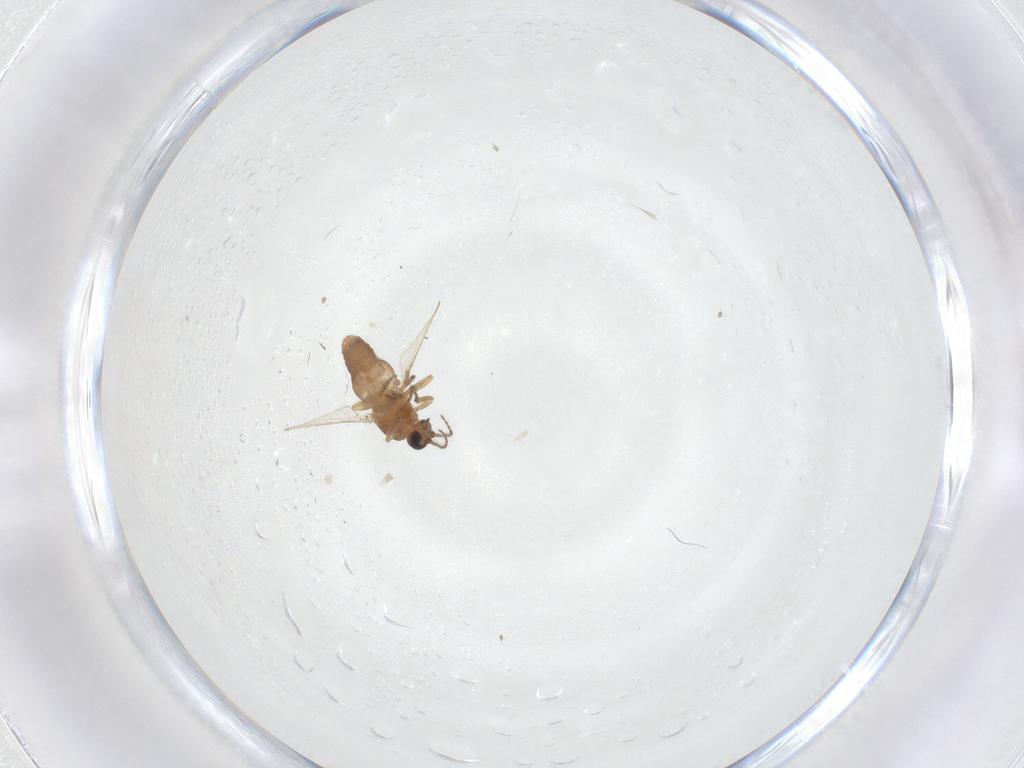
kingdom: Animalia
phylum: Arthropoda
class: Insecta
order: Diptera
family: Ceratopogonidae
